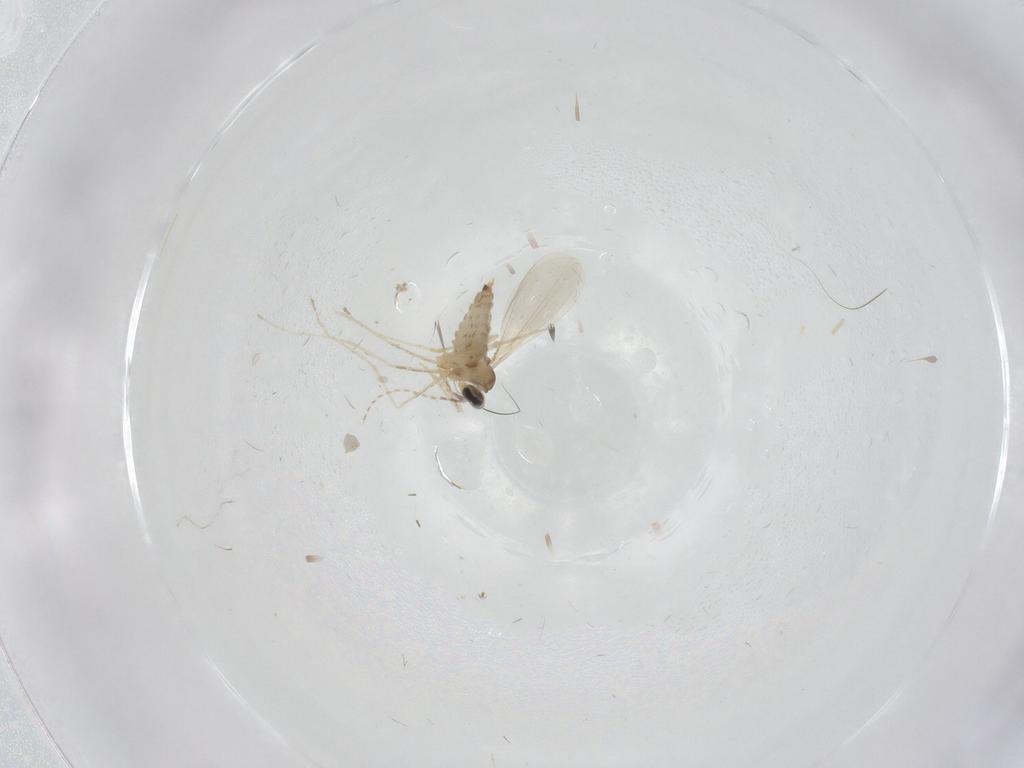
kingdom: Animalia
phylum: Arthropoda
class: Insecta
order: Diptera
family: Cecidomyiidae
